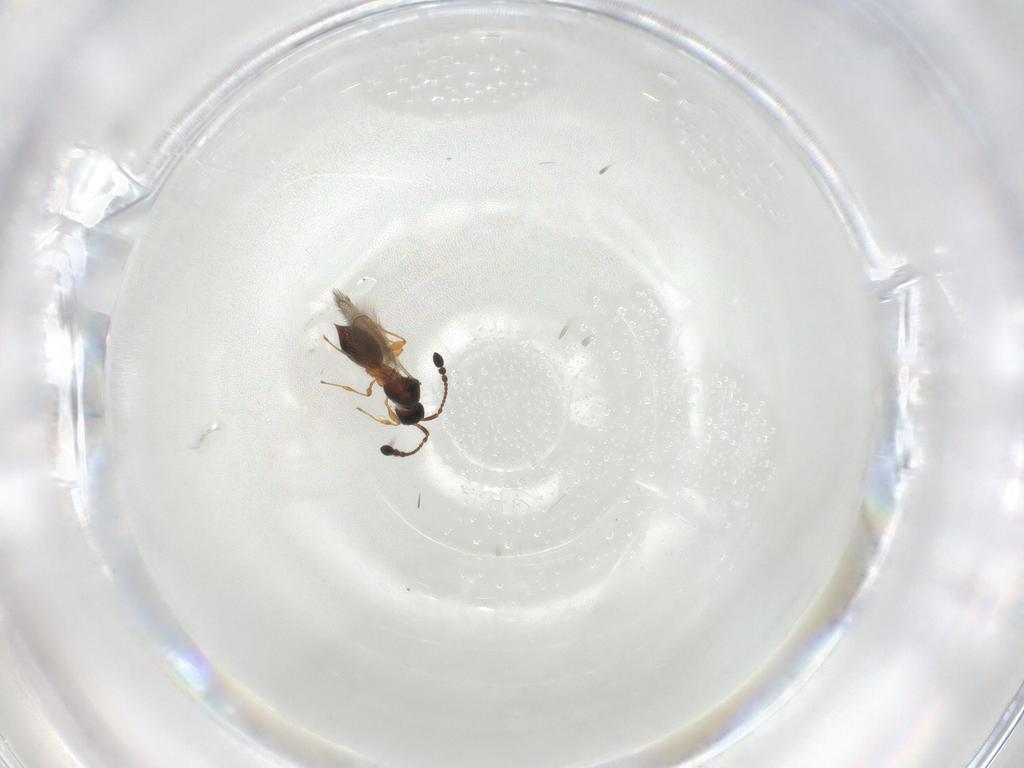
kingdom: Animalia
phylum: Arthropoda
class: Insecta
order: Hymenoptera
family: Diapriidae
